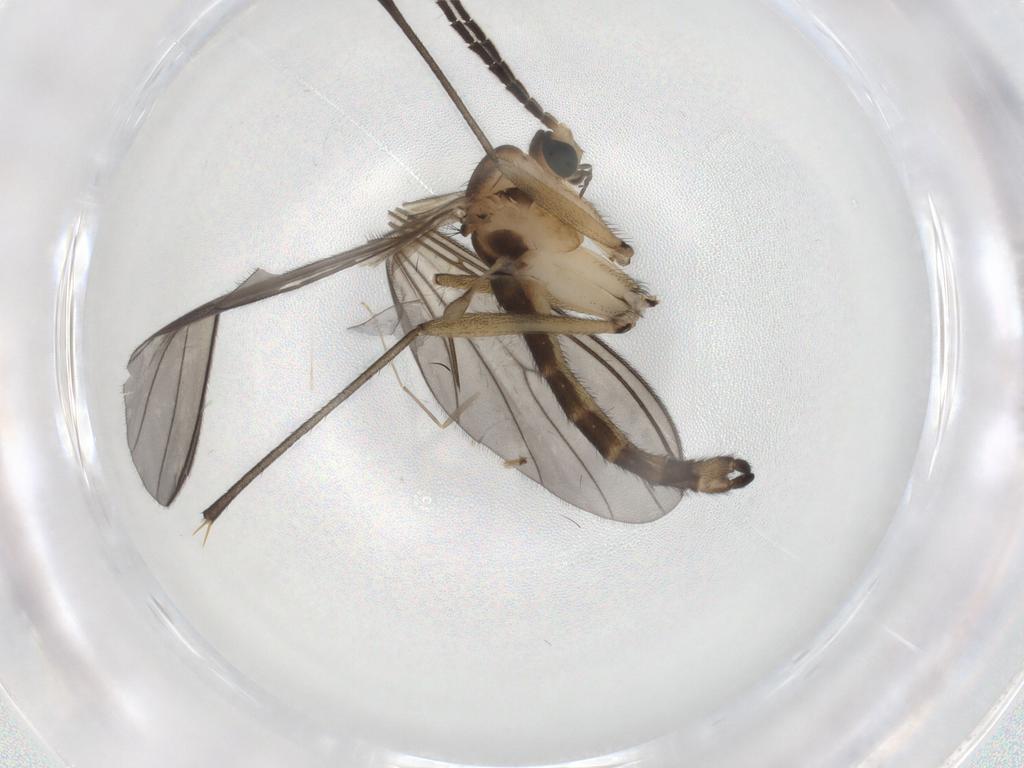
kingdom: Animalia
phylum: Arthropoda
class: Insecta
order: Diptera
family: Sciaridae
